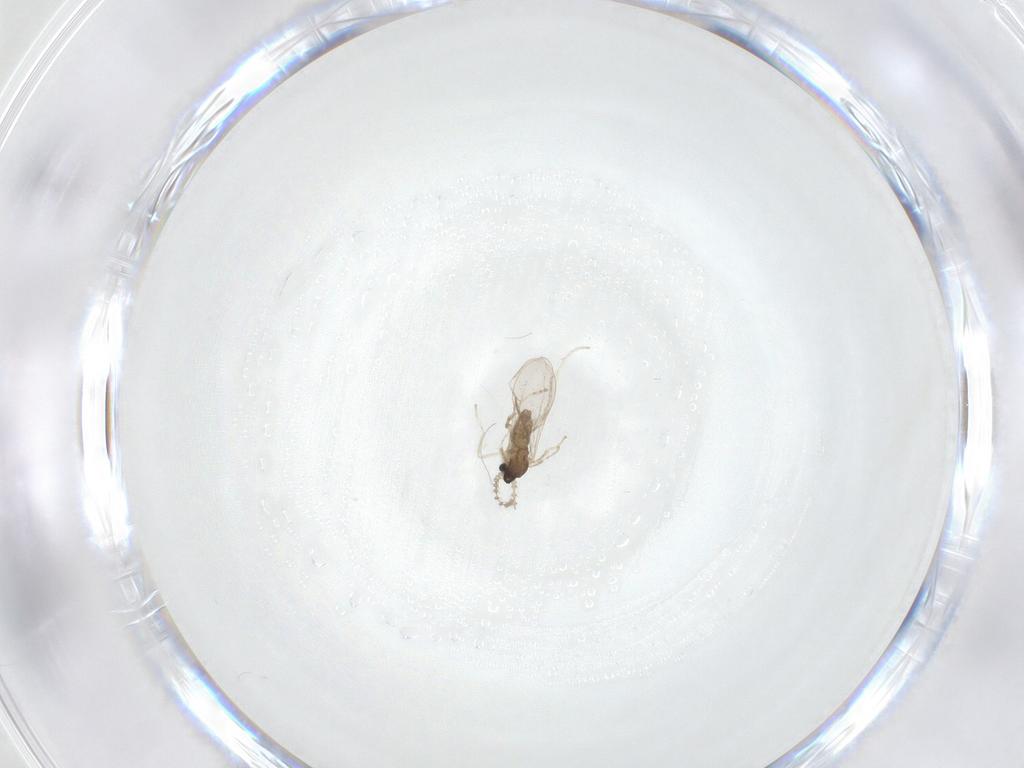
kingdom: Animalia
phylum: Arthropoda
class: Insecta
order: Diptera
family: Cecidomyiidae
